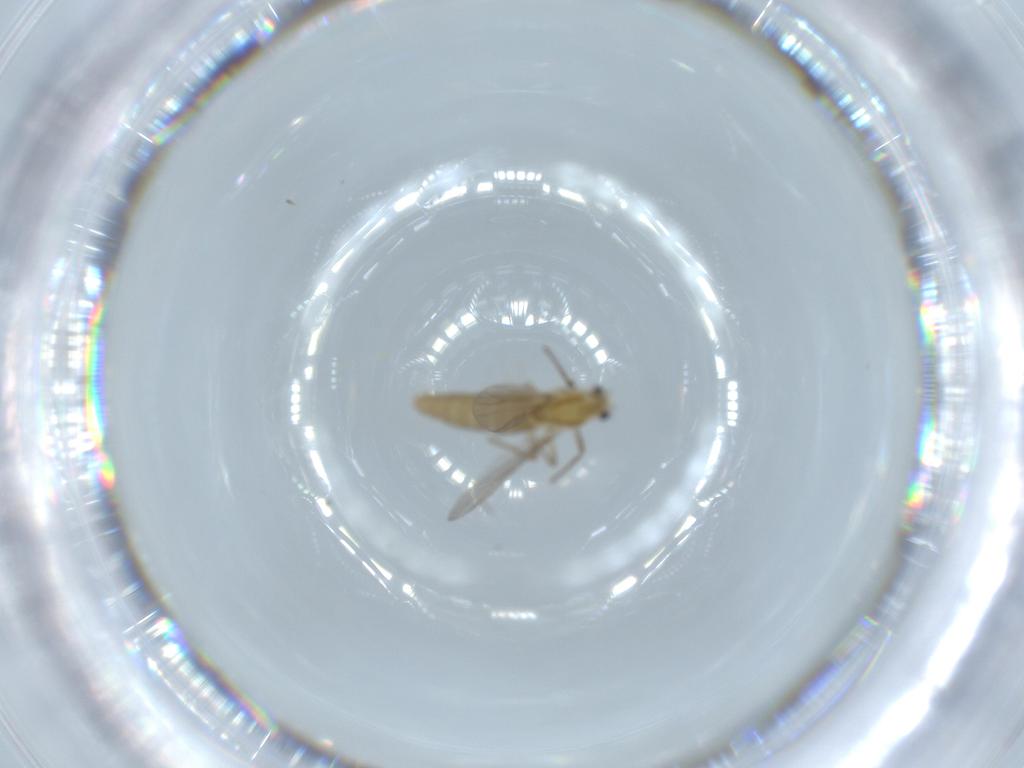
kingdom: Animalia
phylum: Arthropoda
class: Insecta
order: Diptera
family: Chironomidae
